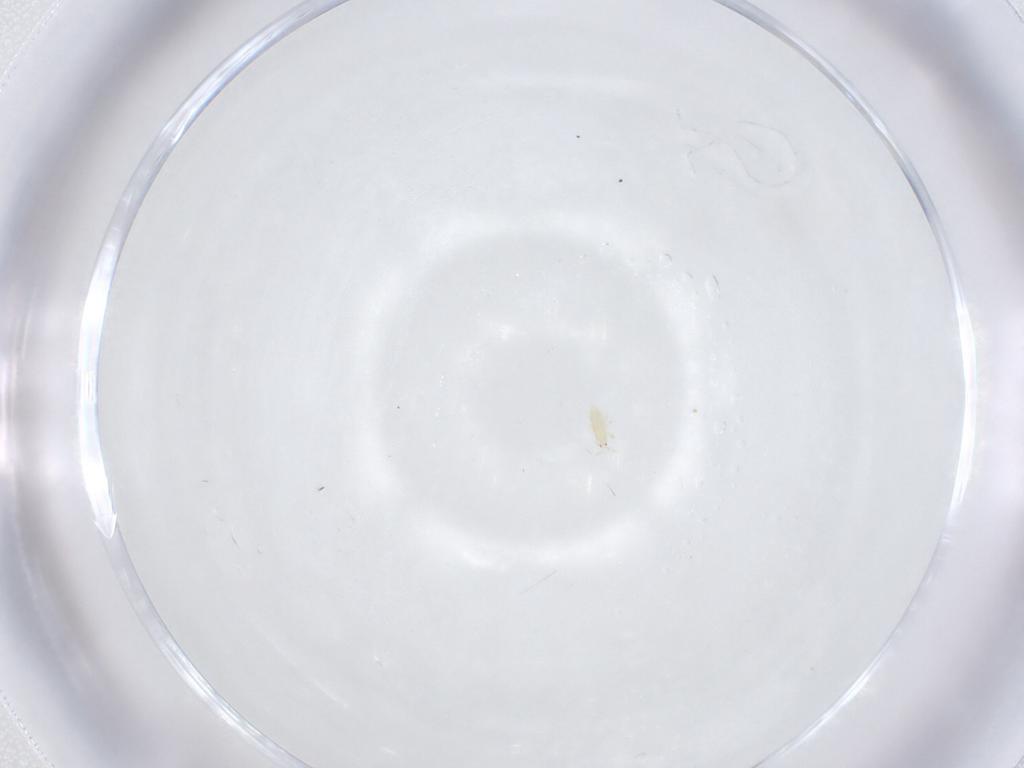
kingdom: Animalia
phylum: Arthropoda
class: Insecta
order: Thysanoptera
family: Thripidae
